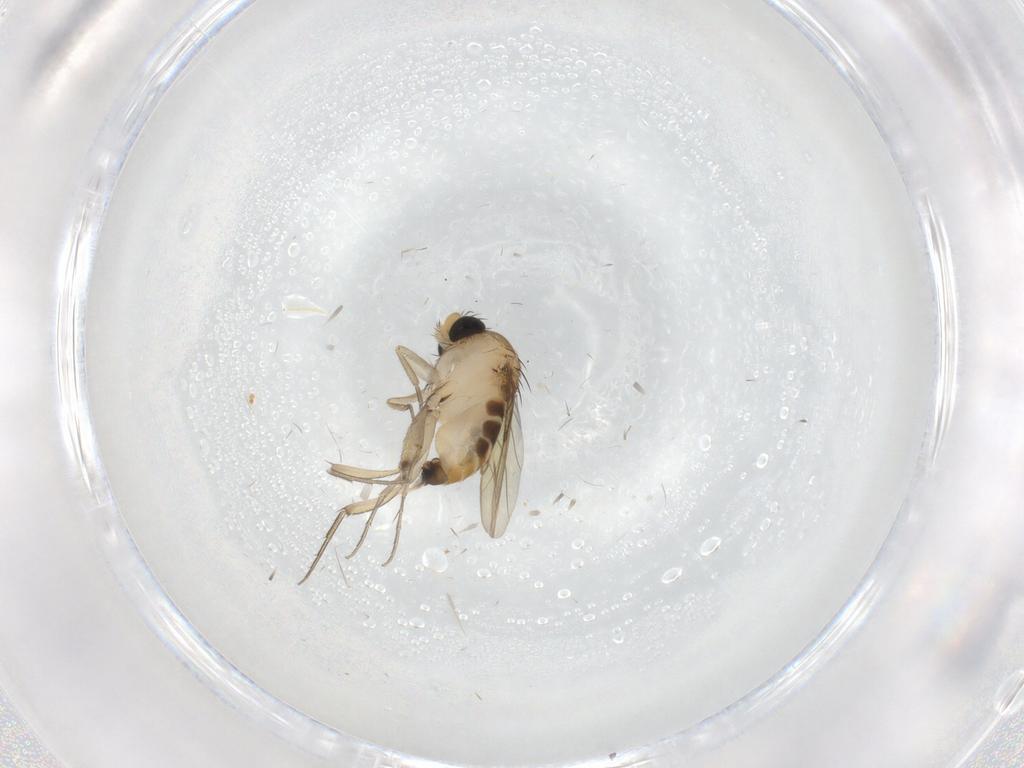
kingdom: Animalia
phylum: Arthropoda
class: Insecta
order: Diptera
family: Phoridae
